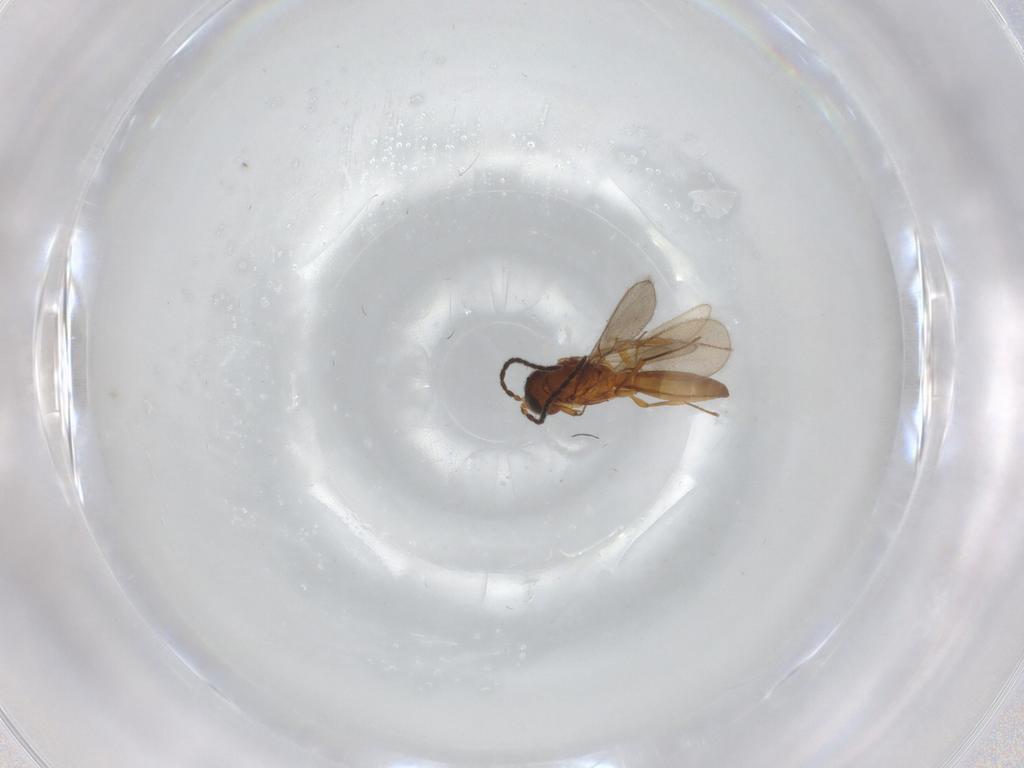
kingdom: Animalia
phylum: Arthropoda
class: Insecta
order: Hymenoptera
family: Scelionidae
